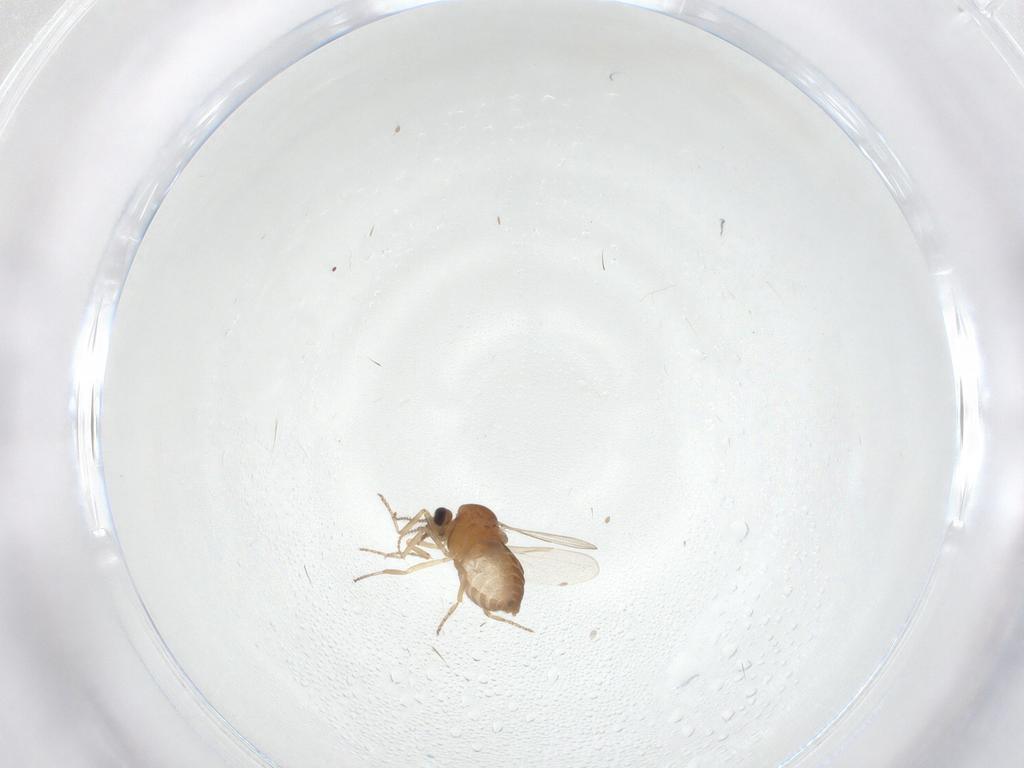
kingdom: Animalia
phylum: Arthropoda
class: Insecta
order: Diptera
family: Ceratopogonidae
